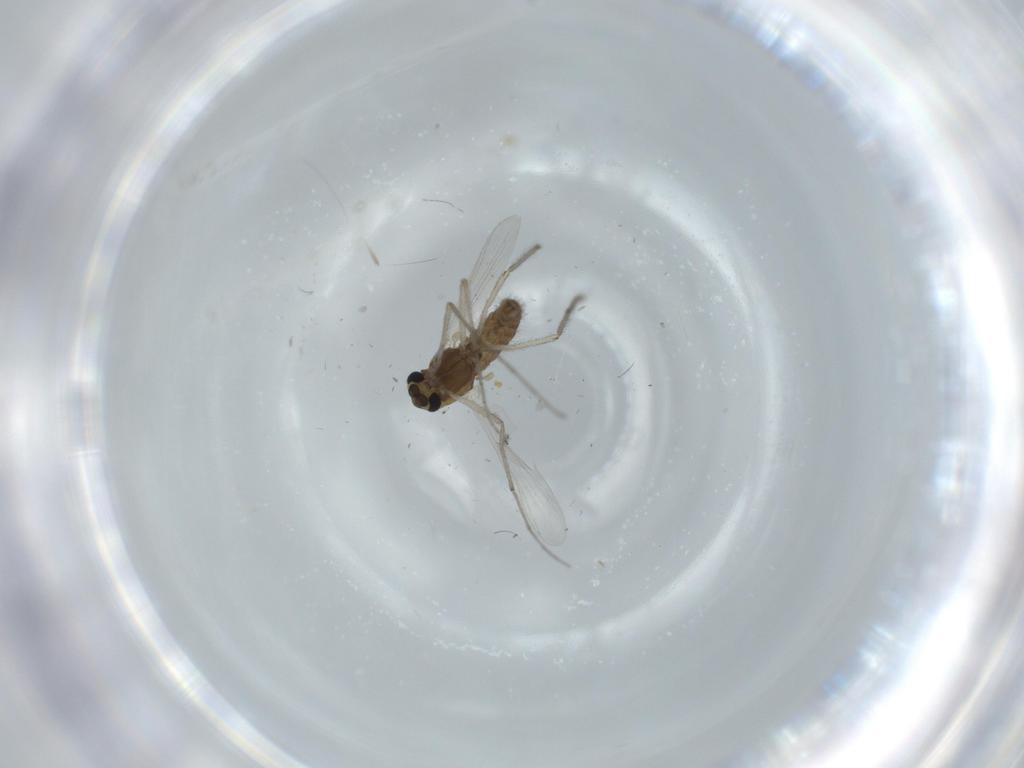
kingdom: Animalia
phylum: Arthropoda
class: Insecta
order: Diptera
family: Chironomidae
